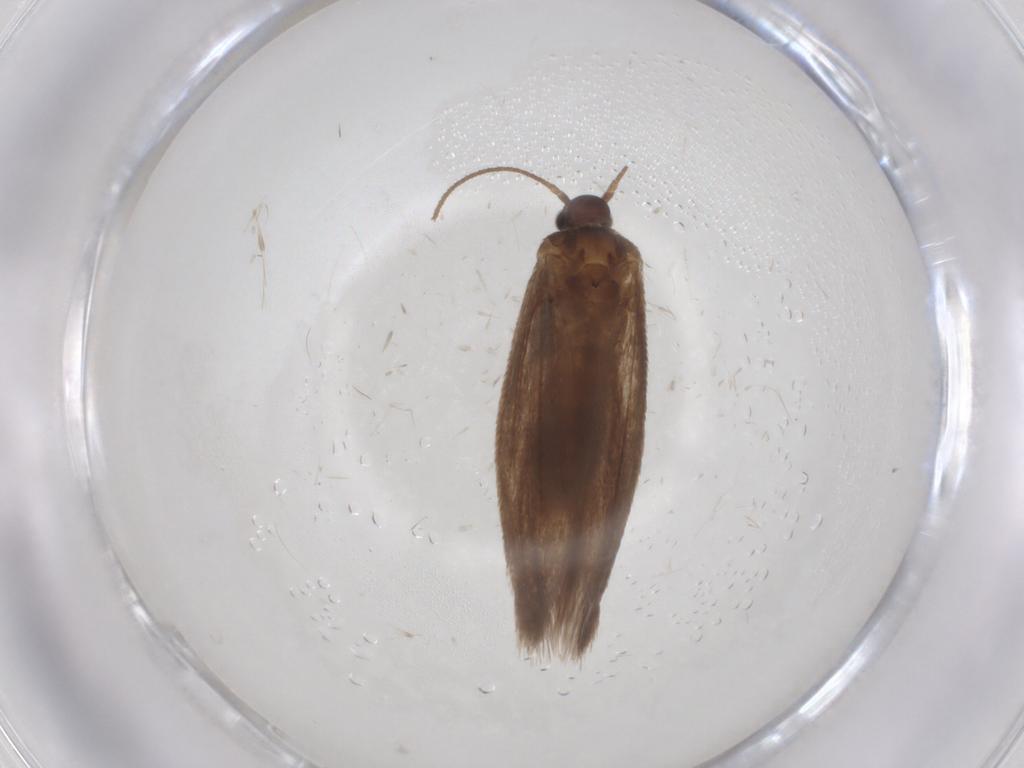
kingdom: Animalia
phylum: Arthropoda
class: Insecta
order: Lepidoptera
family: Limacodidae
